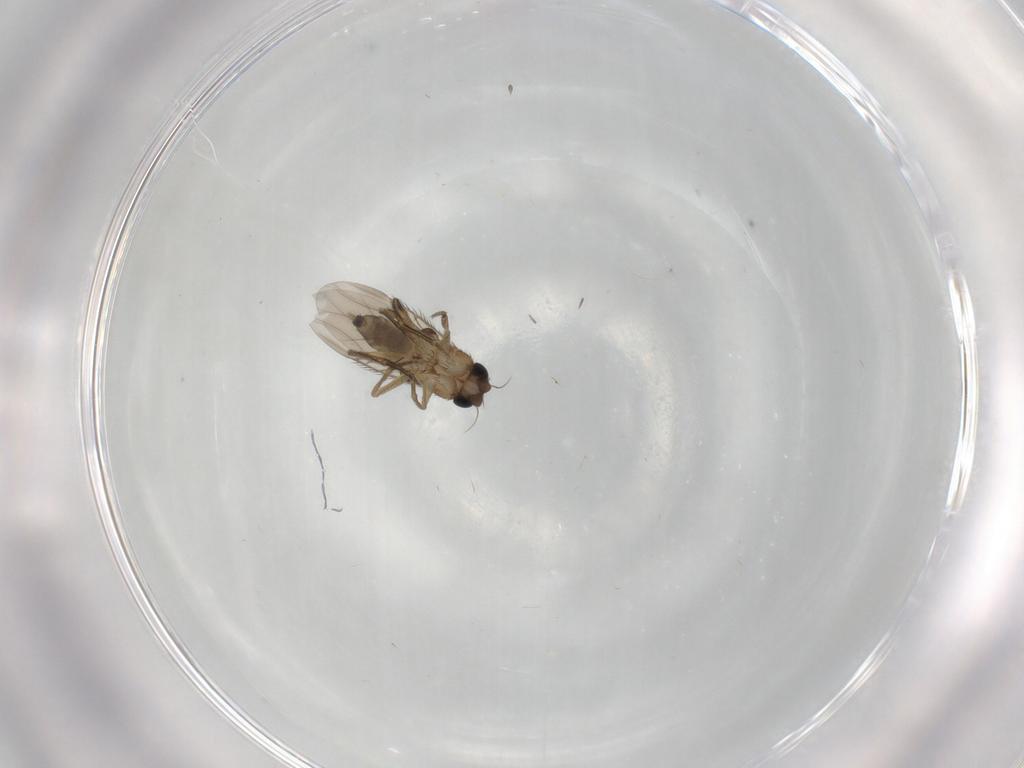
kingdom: Animalia
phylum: Arthropoda
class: Insecta
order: Diptera
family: Phoridae
